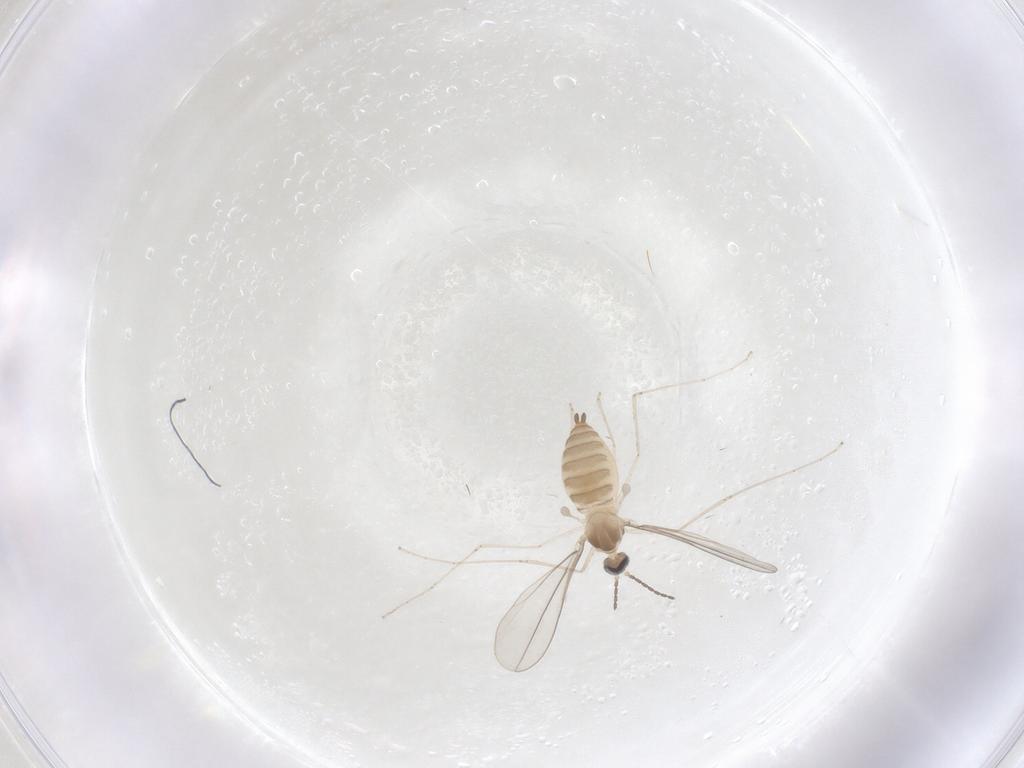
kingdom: Animalia
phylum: Arthropoda
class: Insecta
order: Diptera
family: Cecidomyiidae
